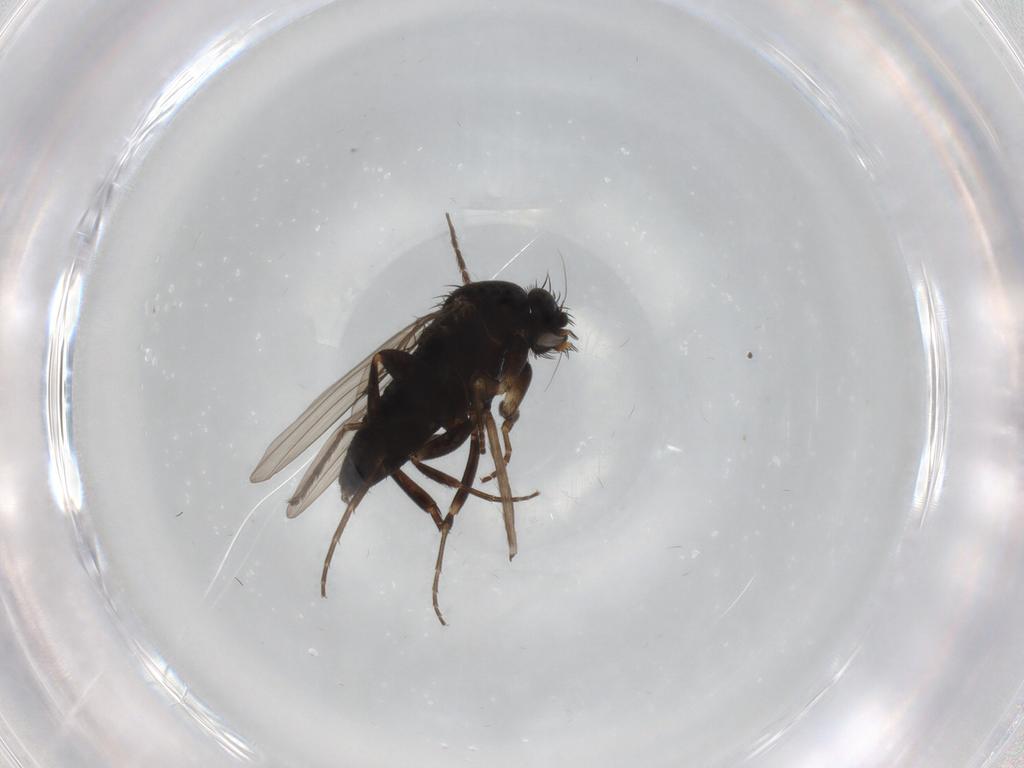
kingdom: Animalia
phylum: Arthropoda
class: Insecta
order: Diptera
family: Phoridae
